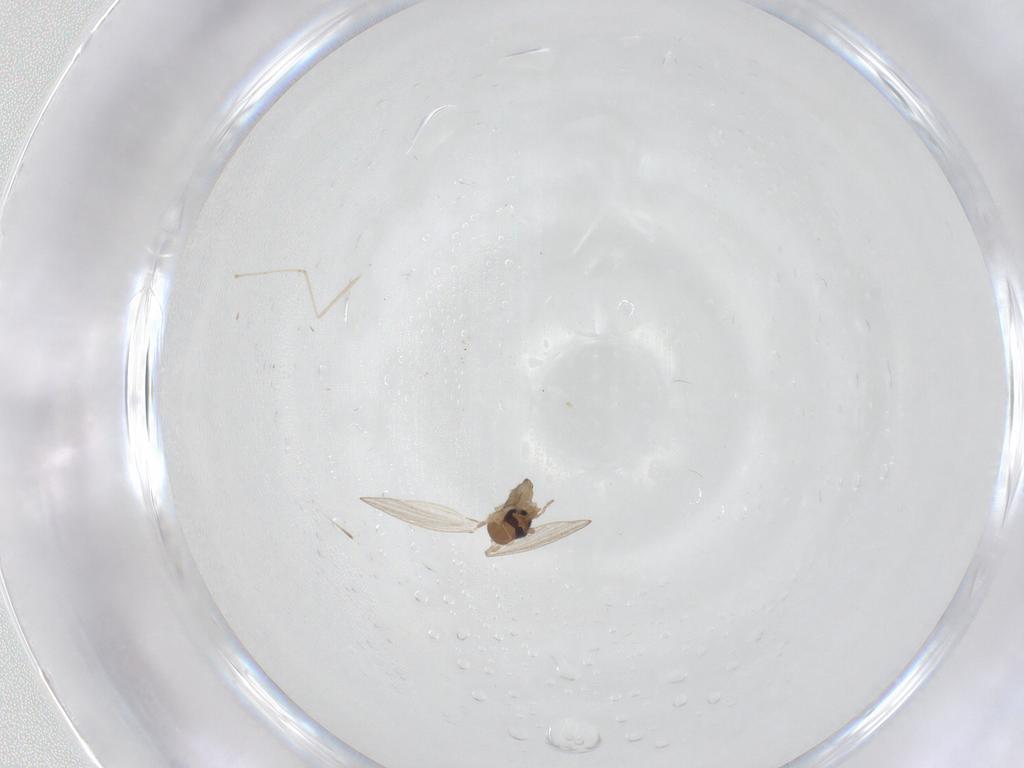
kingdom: Animalia
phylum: Arthropoda
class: Insecta
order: Diptera
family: Psychodidae
